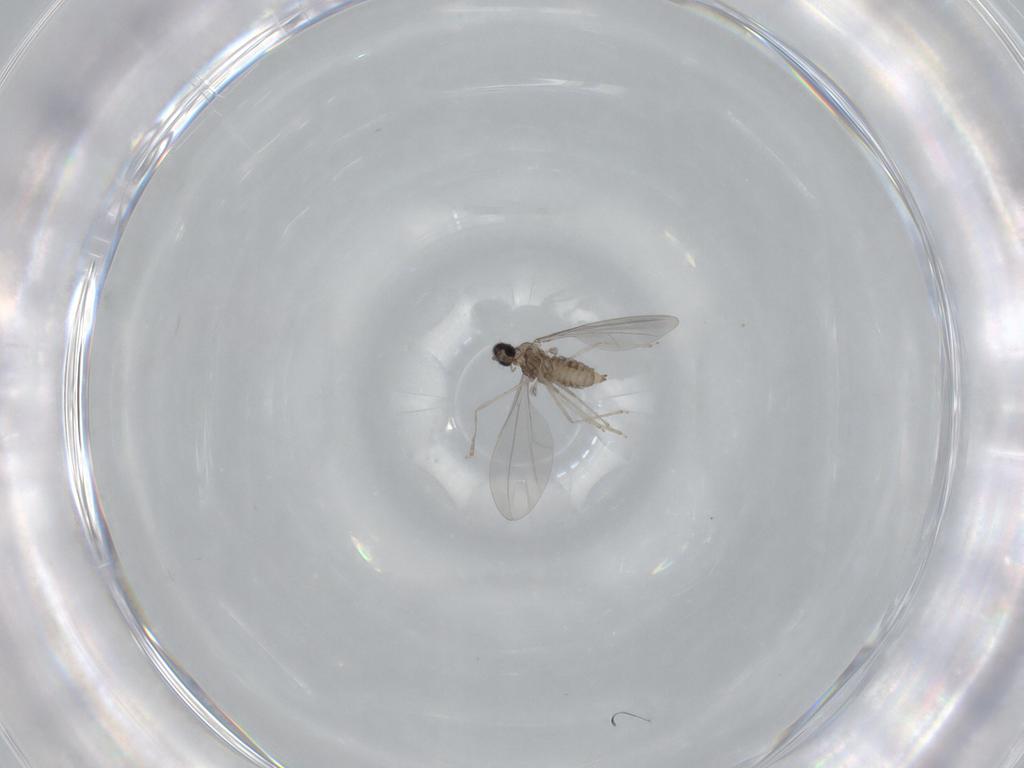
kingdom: Animalia
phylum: Arthropoda
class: Insecta
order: Diptera
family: Sciaridae
